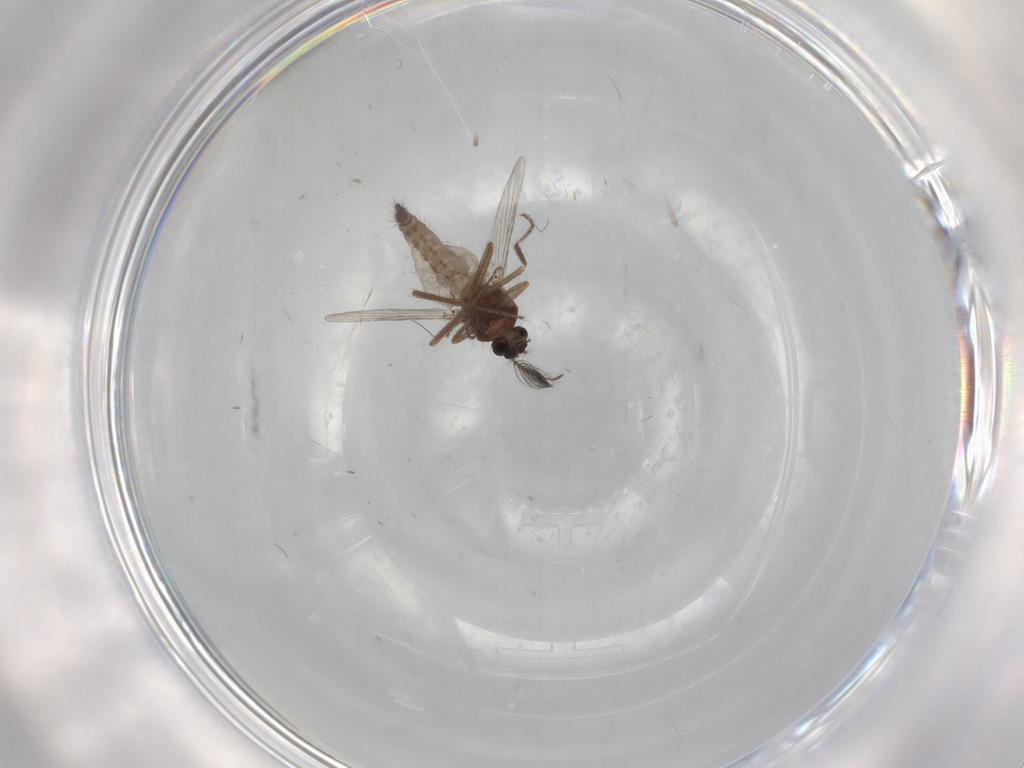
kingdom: Animalia
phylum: Arthropoda
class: Insecta
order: Diptera
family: Ceratopogonidae
